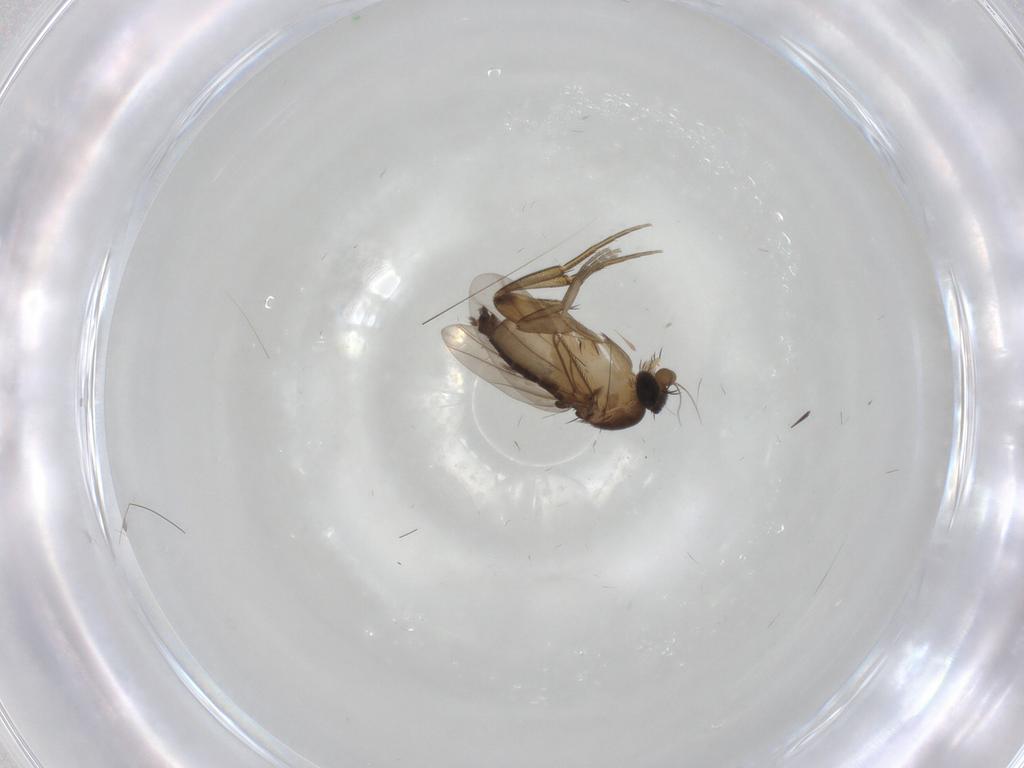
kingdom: Animalia
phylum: Arthropoda
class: Insecta
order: Diptera
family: Phoridae
